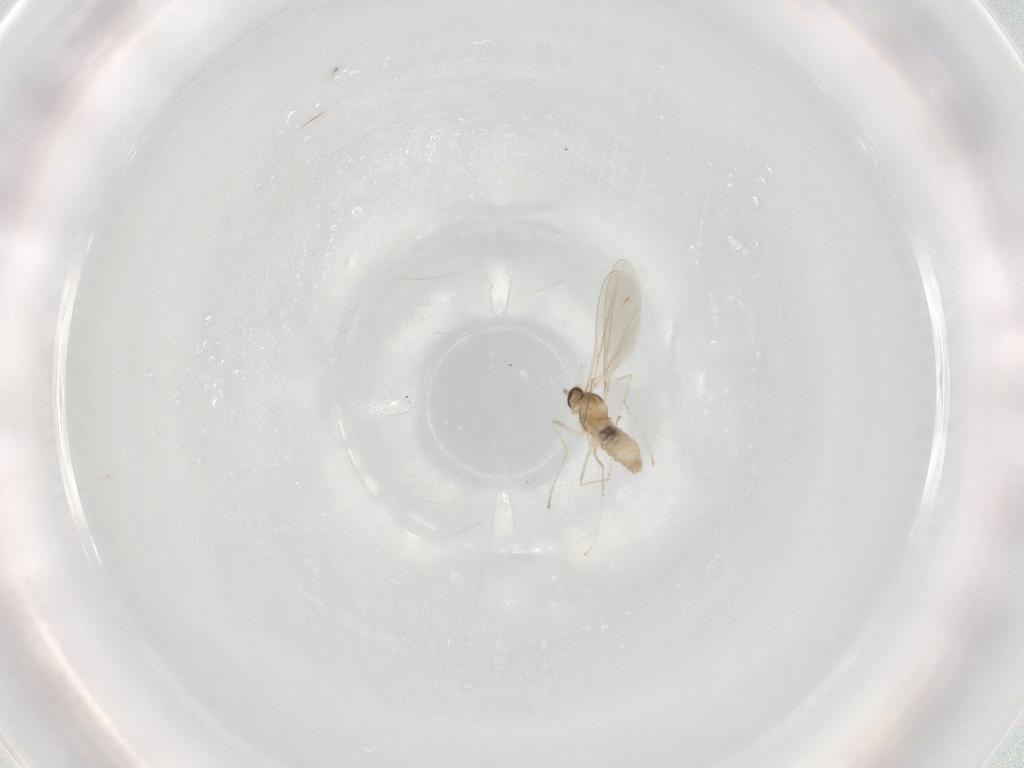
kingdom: Animalia
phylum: Arthropoda
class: Insecta
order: Diptera
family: Cecidomyiidae
